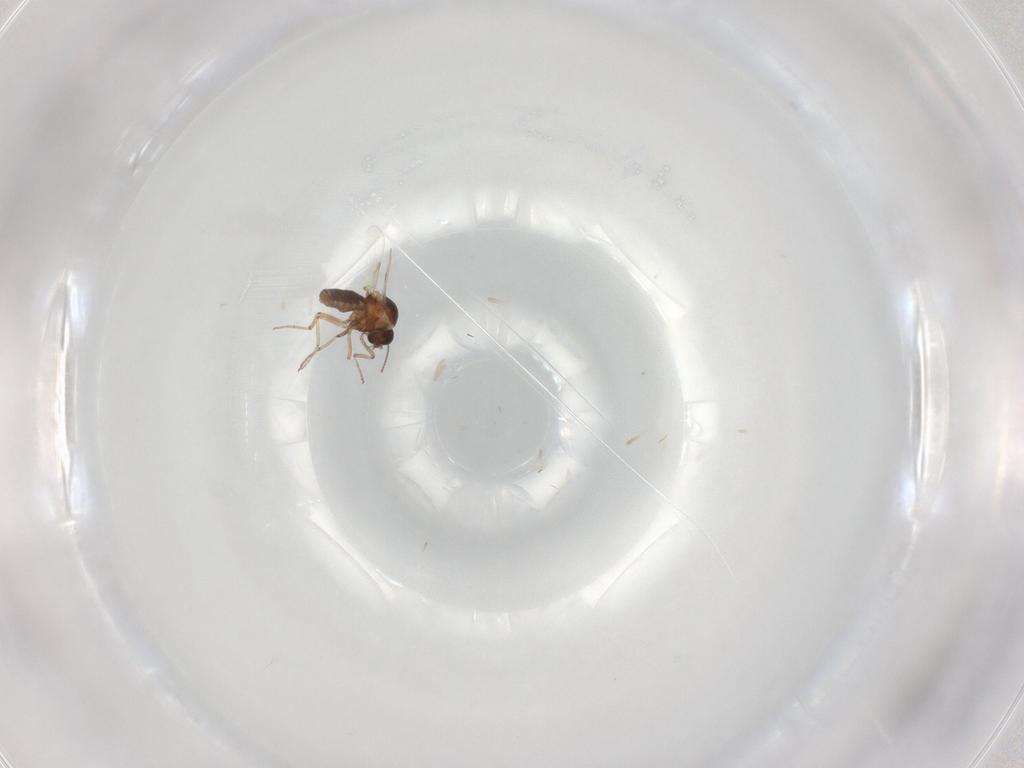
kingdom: Animalia
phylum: Arthropoda
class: Insecta
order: Diptera
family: Ceratopogonidae
